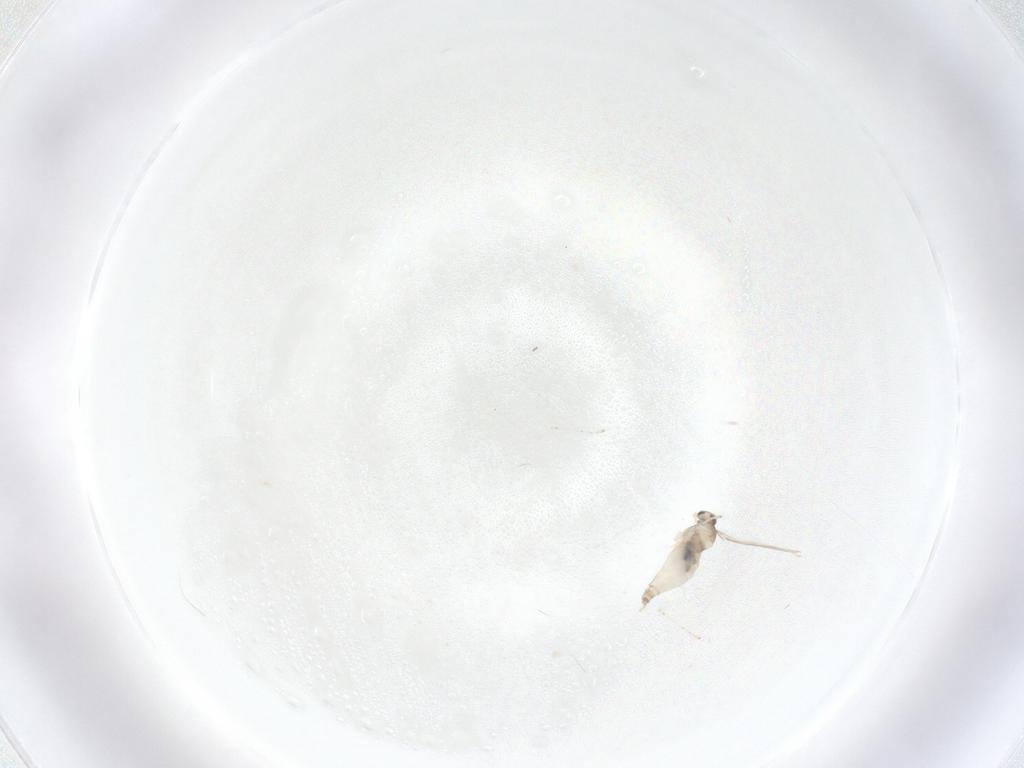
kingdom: Animalia
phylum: Arthropoda
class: Insecta
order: Diptera
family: Cecidomyiidae
